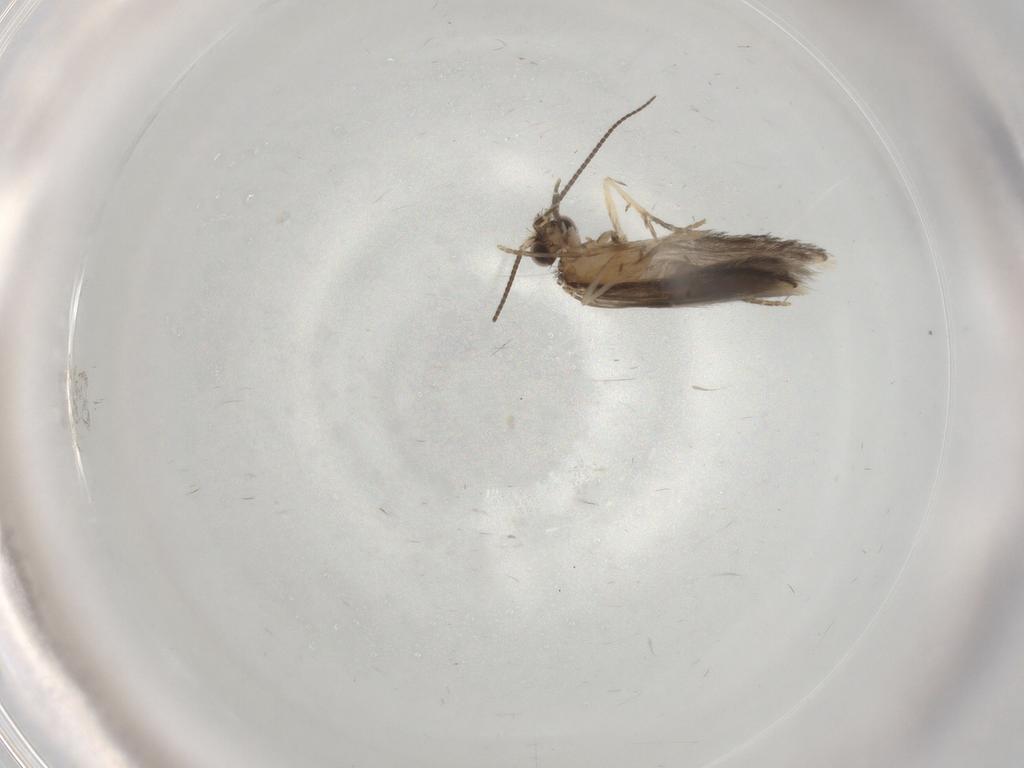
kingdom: Animalia
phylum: Arthropoda
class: Insecta
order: Trichoptera
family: Hydroptilidae
